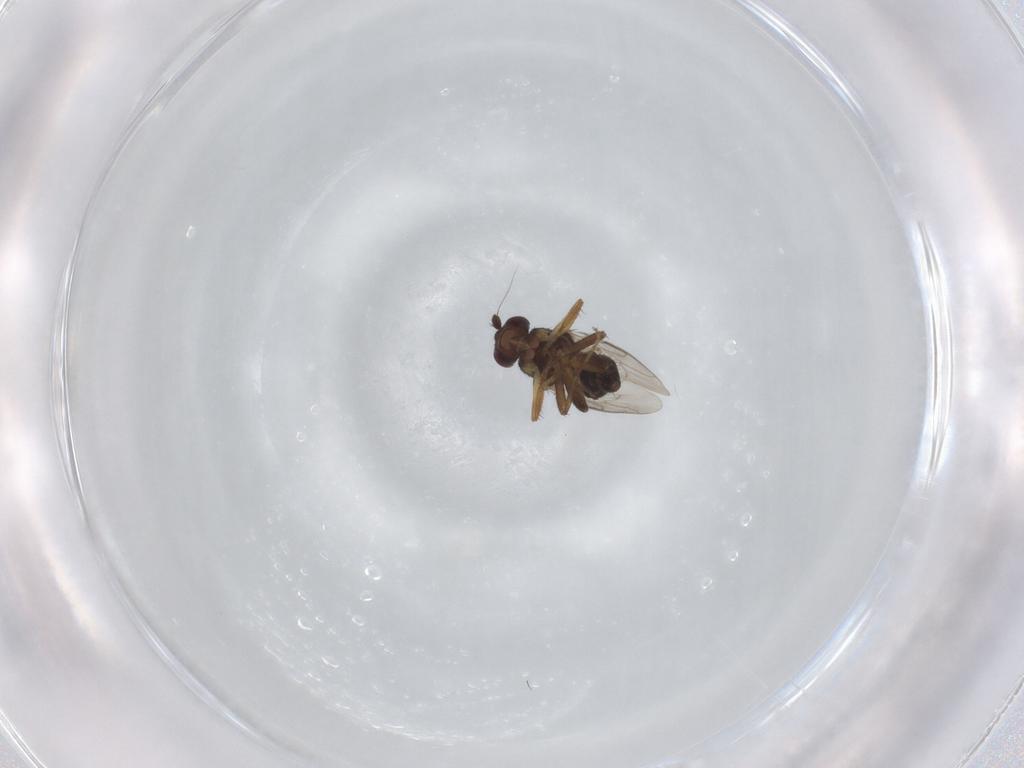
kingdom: Animalia
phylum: Arthropoda
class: Insecta
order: Diptera
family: Sphaeroceridae
